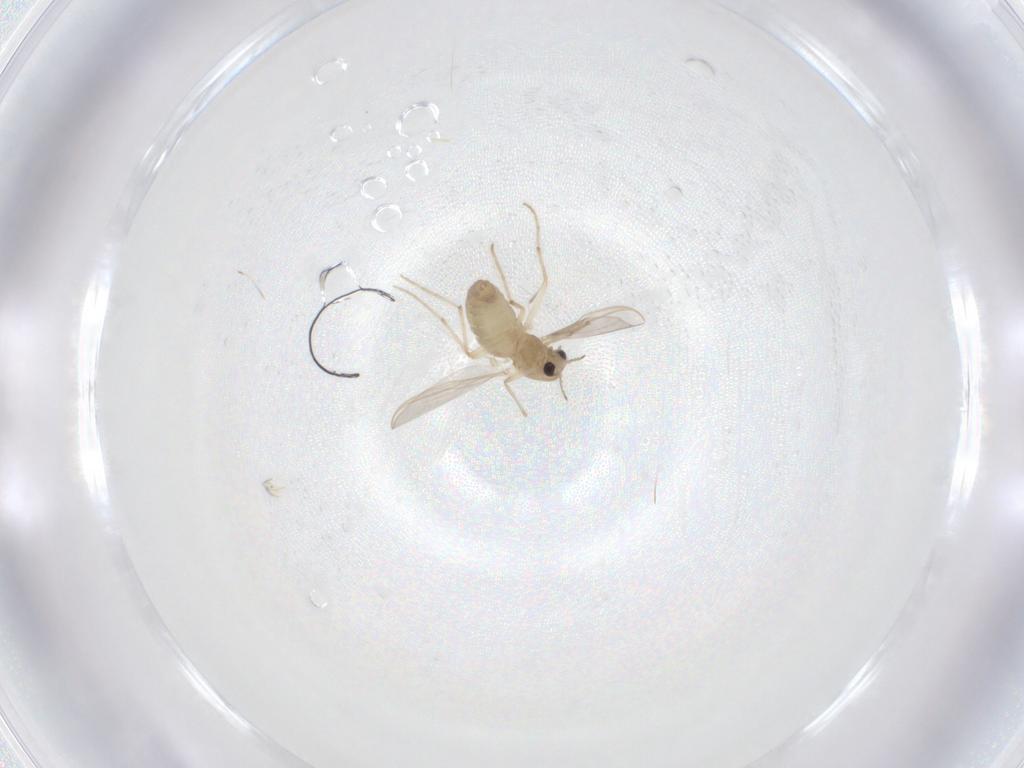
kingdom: Animalia
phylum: Arthropoda
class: Insecta
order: Diptera
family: Chironomidae
